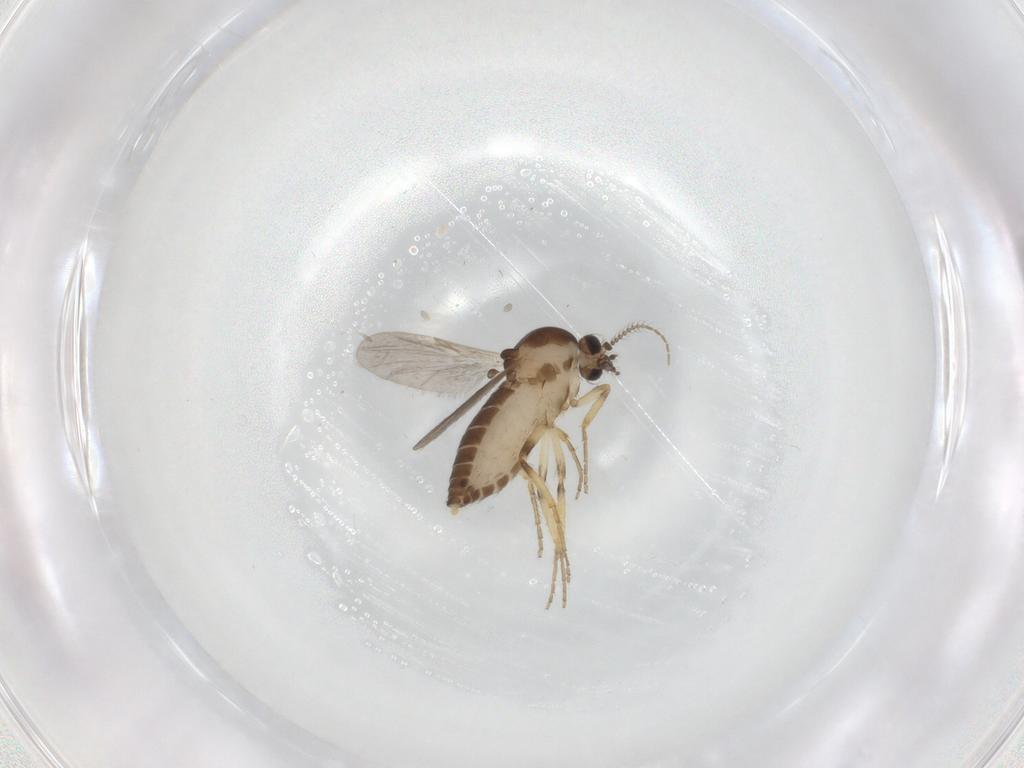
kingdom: Animalia
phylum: Arthropoda
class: Insecta
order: Diptera
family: Ceratopogonidae
